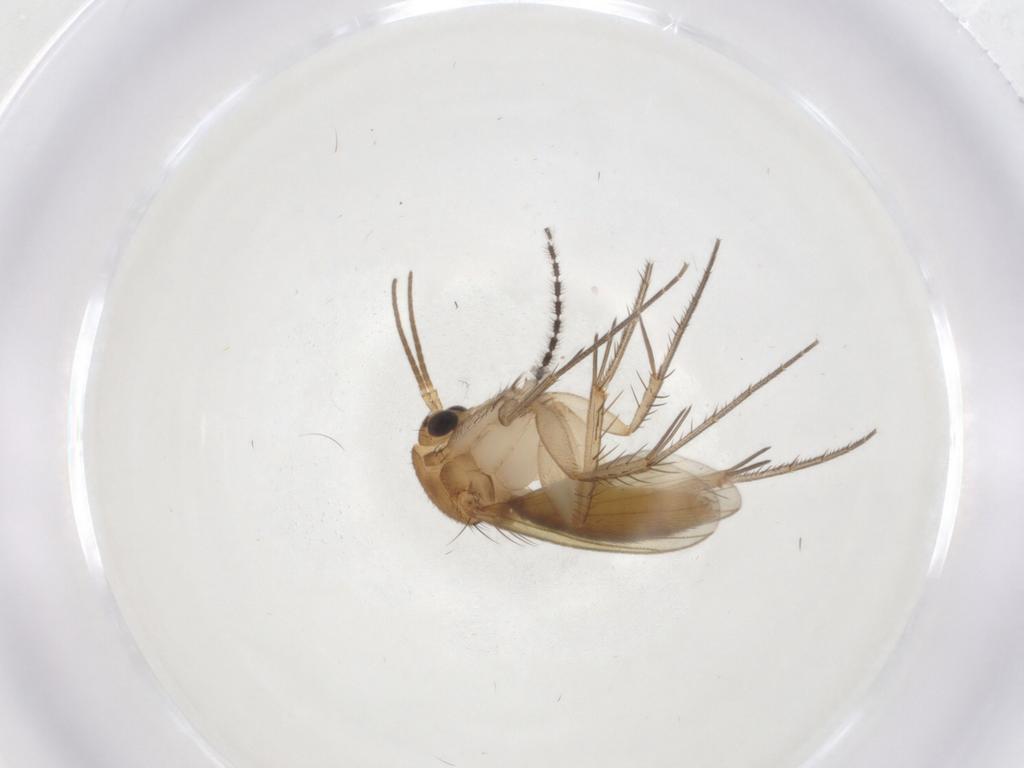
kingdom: Animalia
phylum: Arthropoda
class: Insecta
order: Diptera
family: Mycetophilidae
